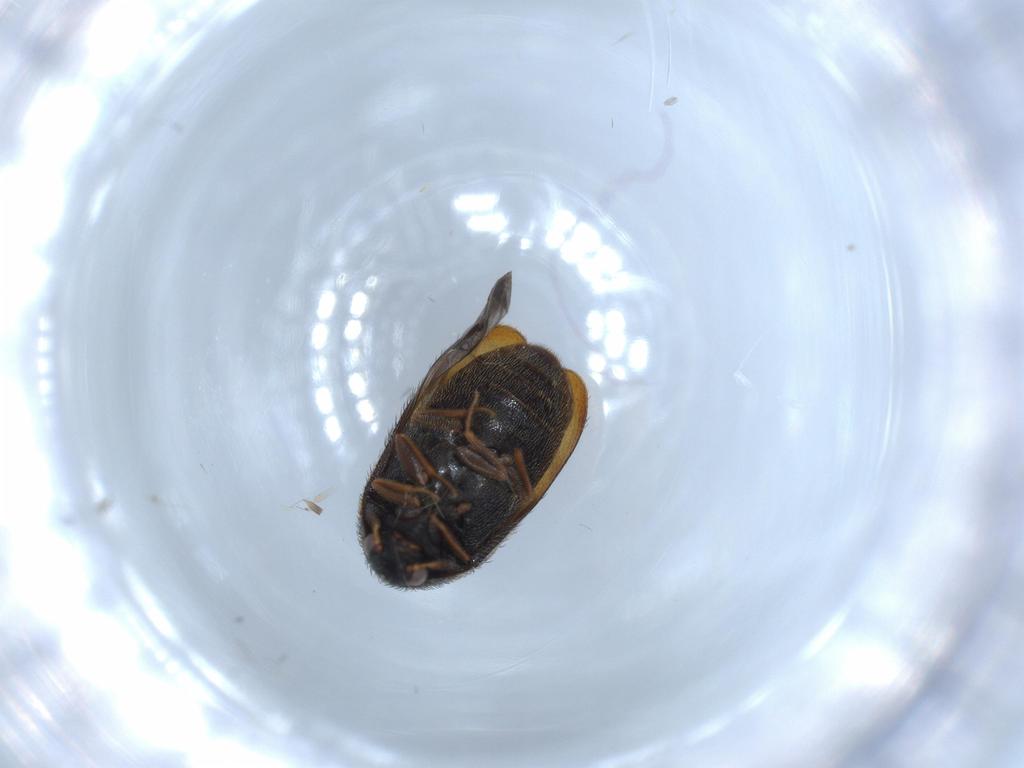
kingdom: Animalia
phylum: Arthropoda
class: Insecta
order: Coleoptera
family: Dermestidae
